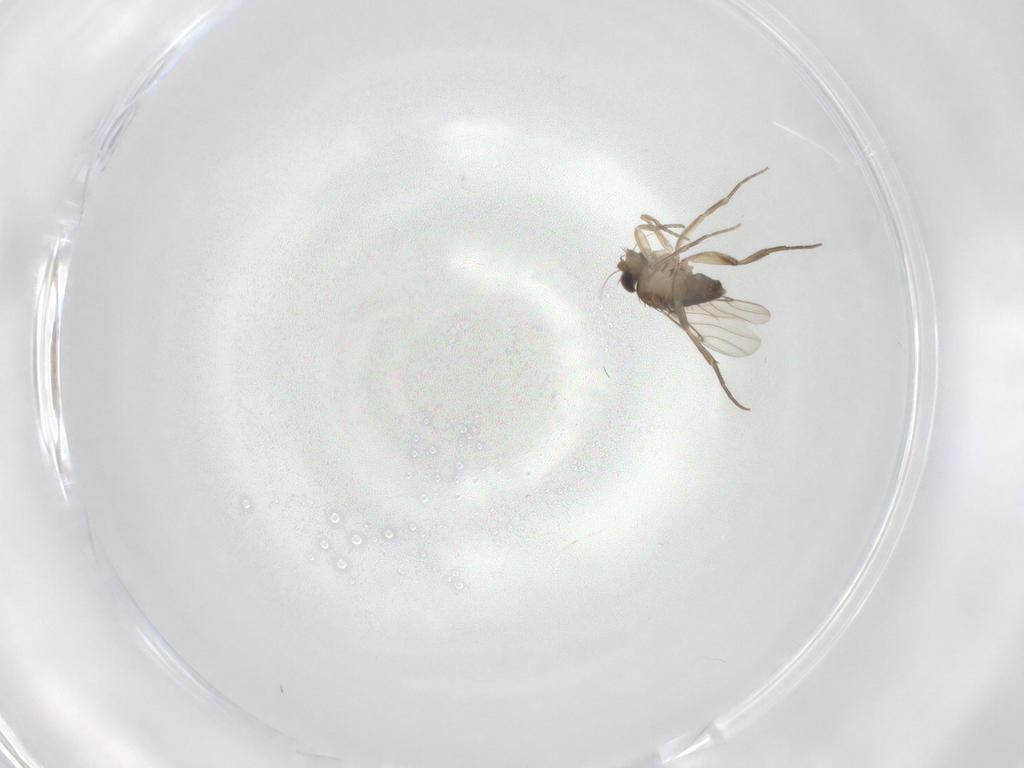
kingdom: Animalia
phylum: Arthropoda
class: Insecta
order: Diptera
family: Phoridae
